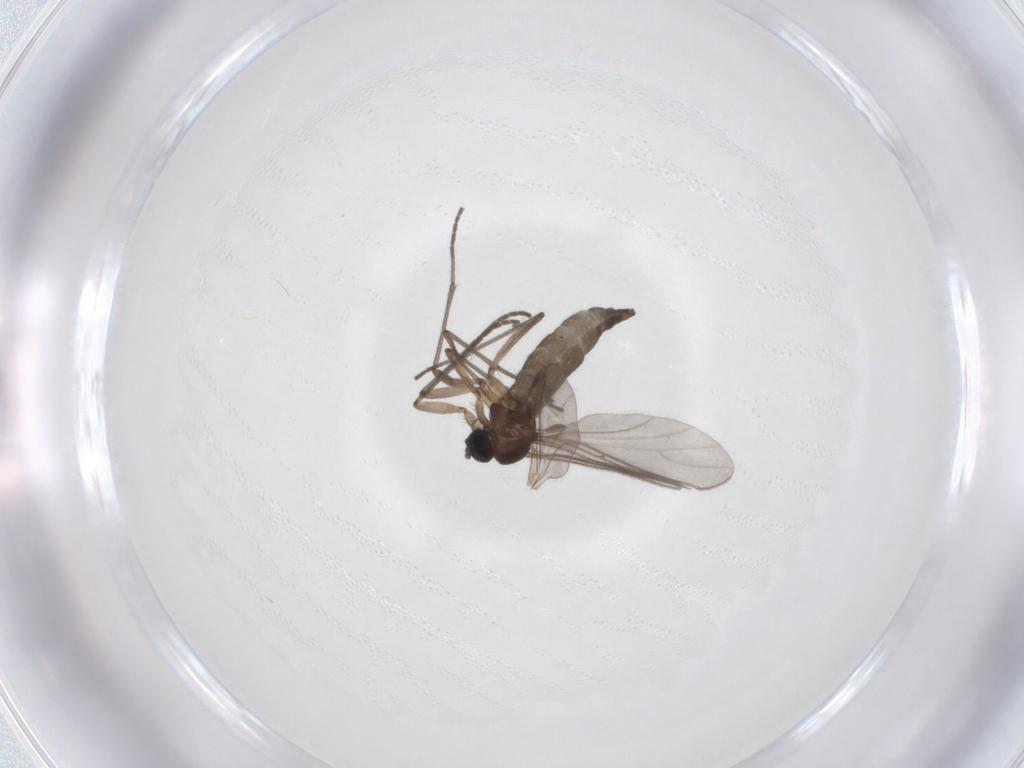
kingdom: Animalia
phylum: Arthropoda
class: Insecta
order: Diptera
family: Sciaridae
